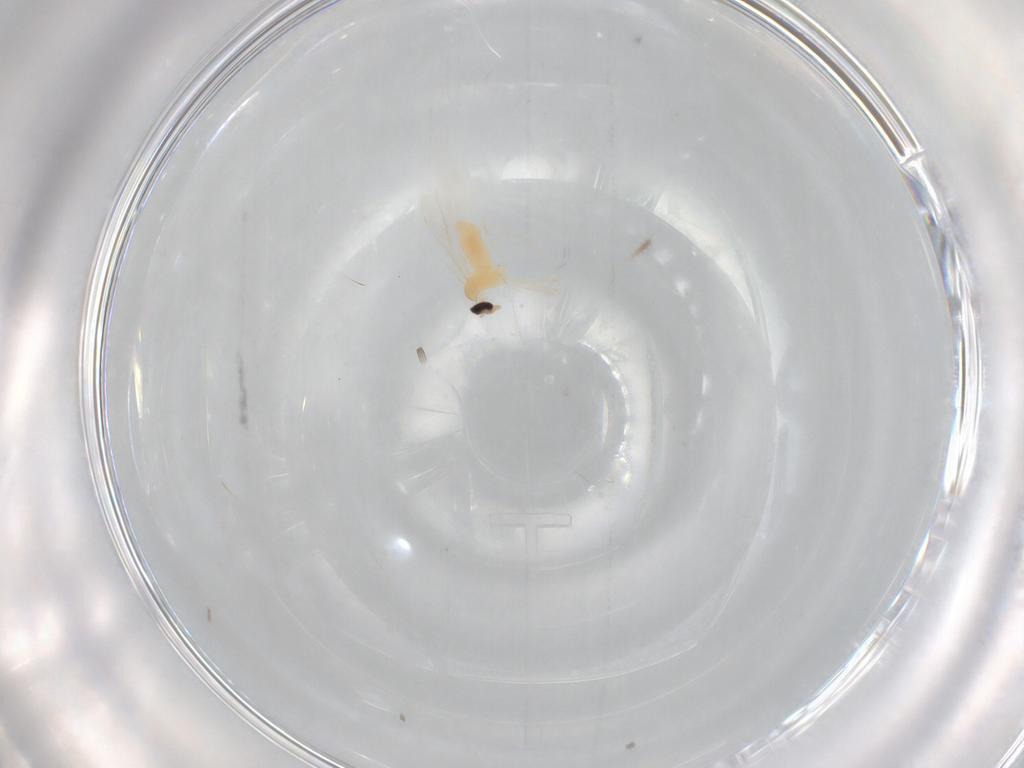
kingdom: Animalia
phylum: Arthropoda
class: Insecta
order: Diptera
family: Cecidomyiidae
